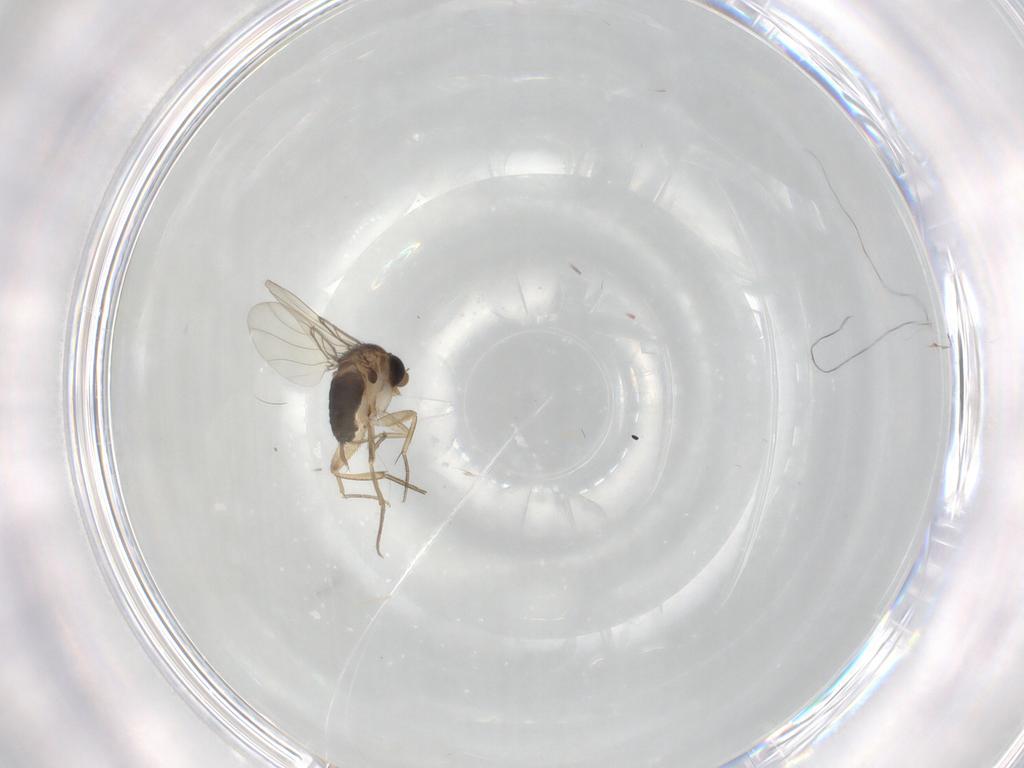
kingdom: Animalia
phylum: Arthropoda
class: Insecta
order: Diptera
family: Phoridae
